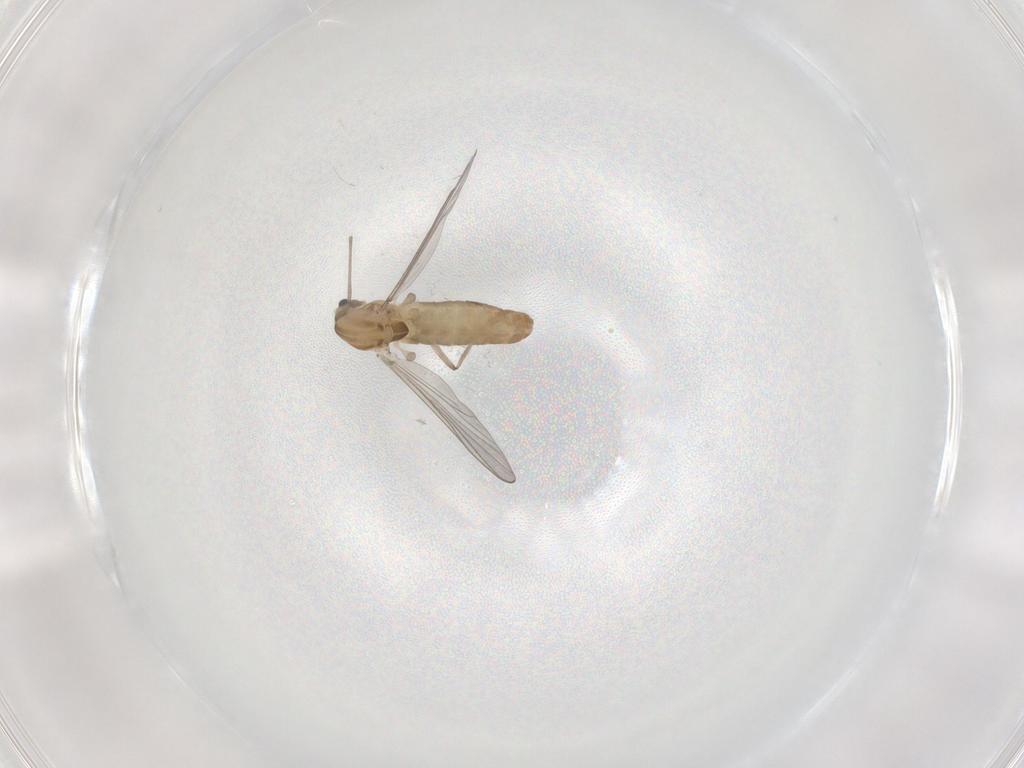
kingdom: Animalia
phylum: Arthropoda
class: Insecta
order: Diptera
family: Chironomidae
